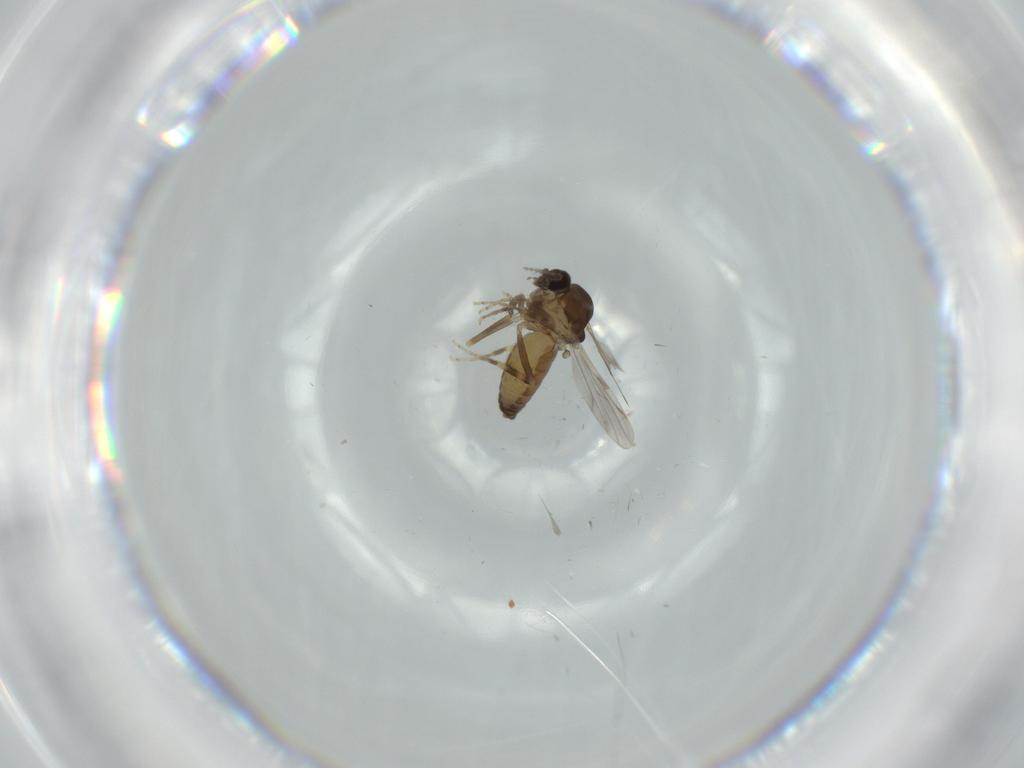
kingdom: Animalia
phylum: Arthropoda
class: Insecta
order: Diptera
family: Ceratopogonidae
